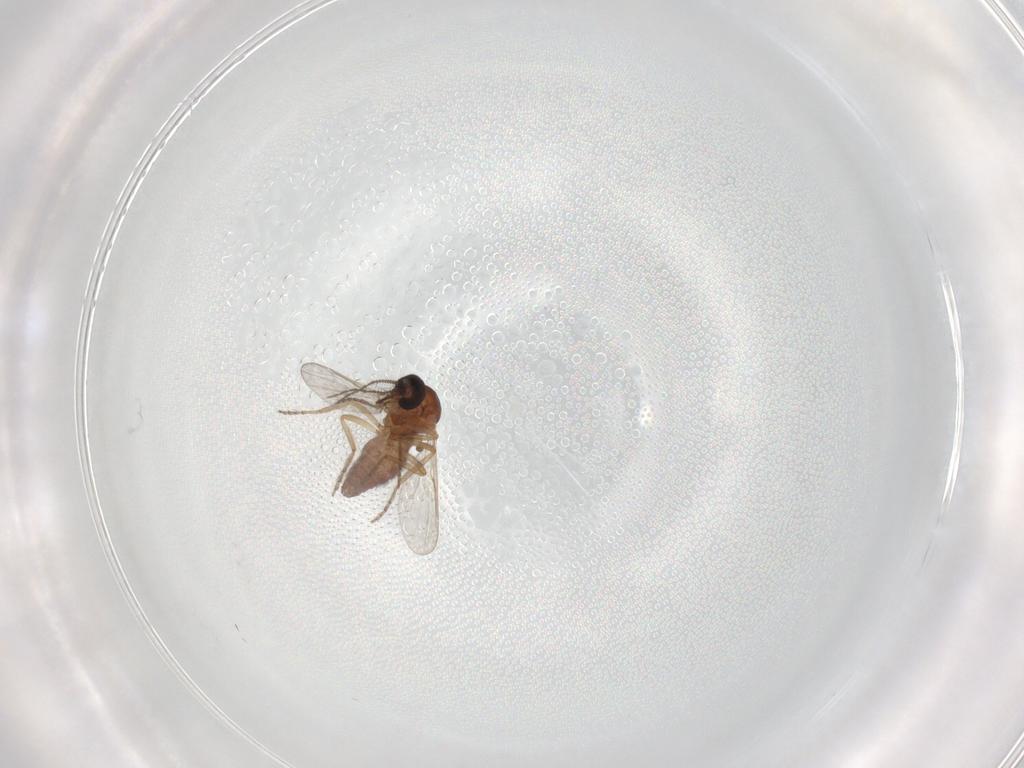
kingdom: Animalia
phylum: Arthropoda
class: Insecta
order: Diptera
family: Ceratopogonidae
